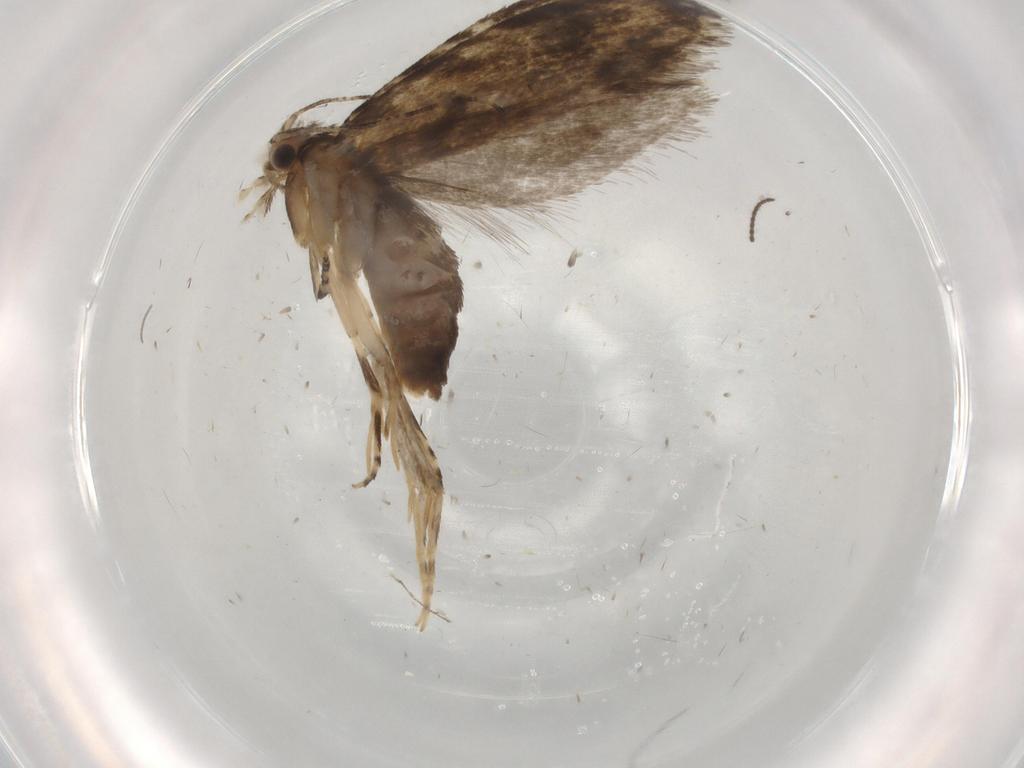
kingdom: Animalia
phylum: Arthropoda
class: Insecta
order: Lepidoptera
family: Tineidae
